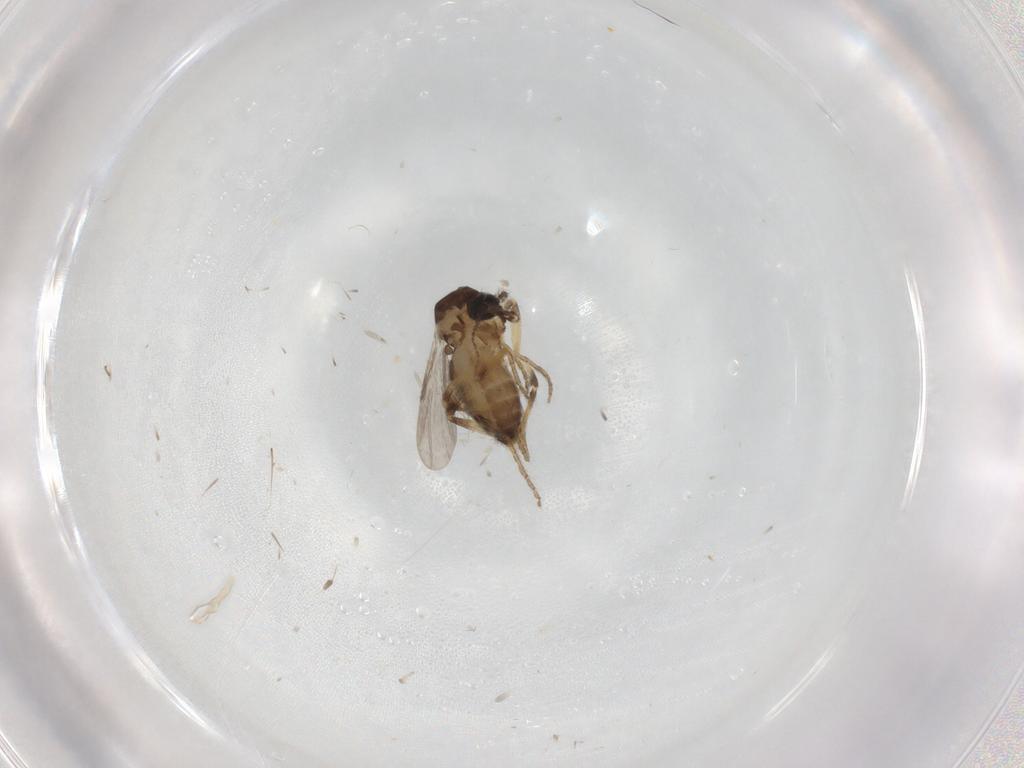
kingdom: Animalia
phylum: Arthropoda
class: Insecta
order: Diptera
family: Ceratopogonidae
